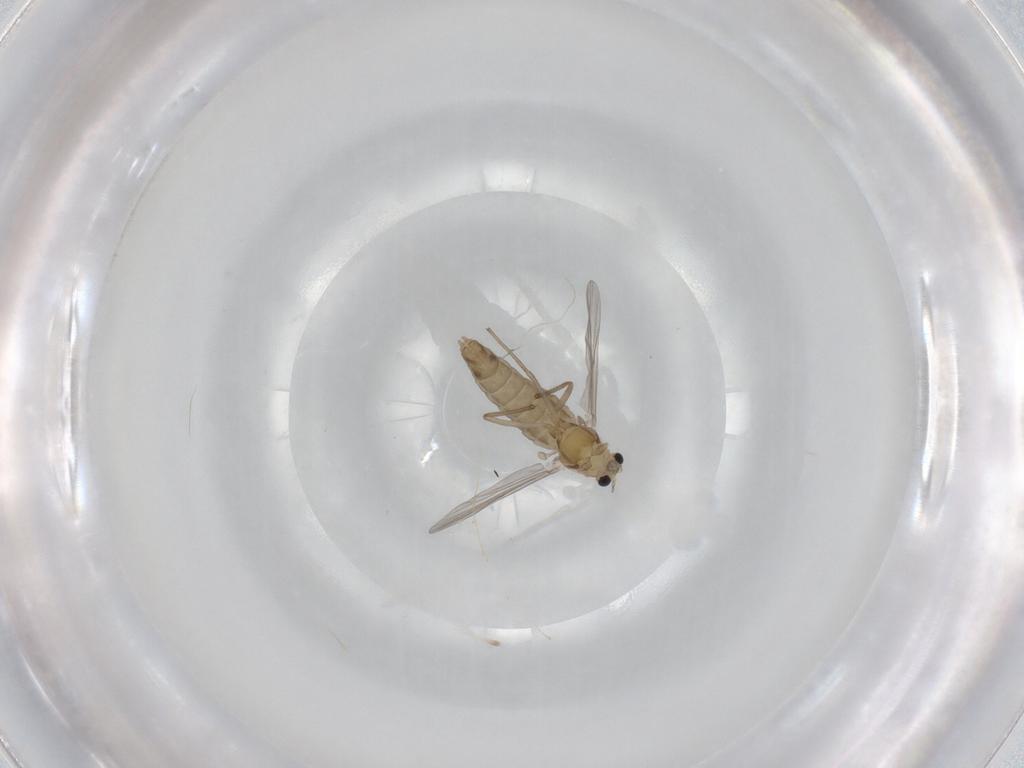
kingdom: Animalia
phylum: Arthropoda
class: Insecta
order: Diptera
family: Chironomidae
